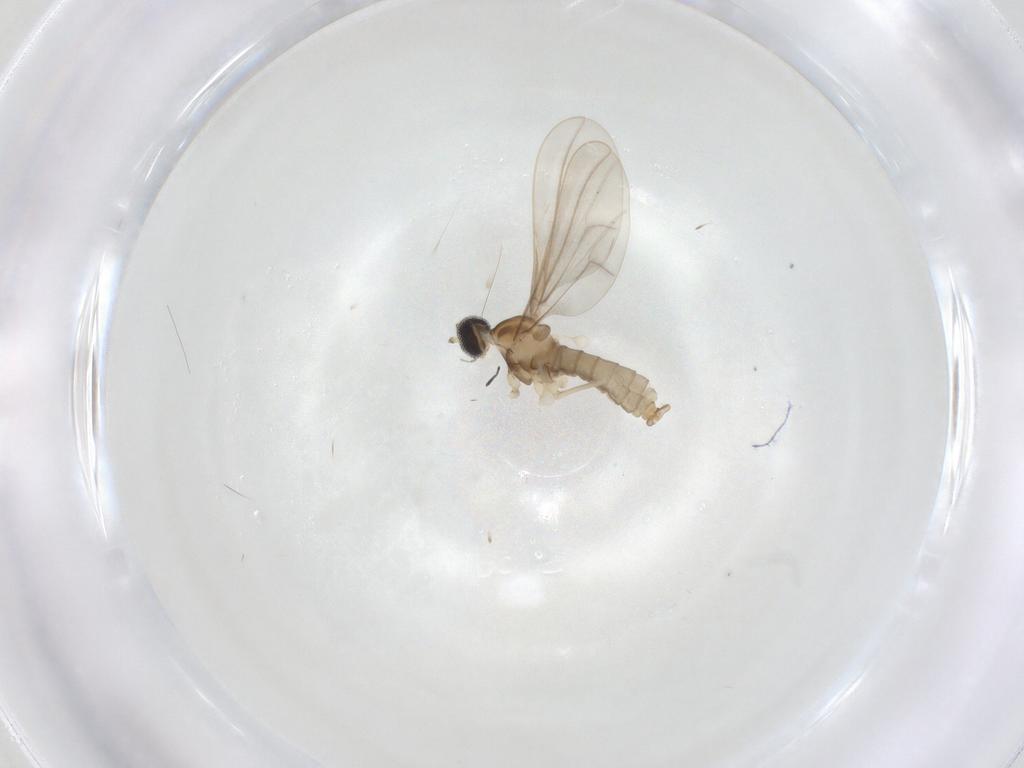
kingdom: Animalia
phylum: Arthropoda
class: Insecta
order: Diptera
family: Cecidomyiidae
